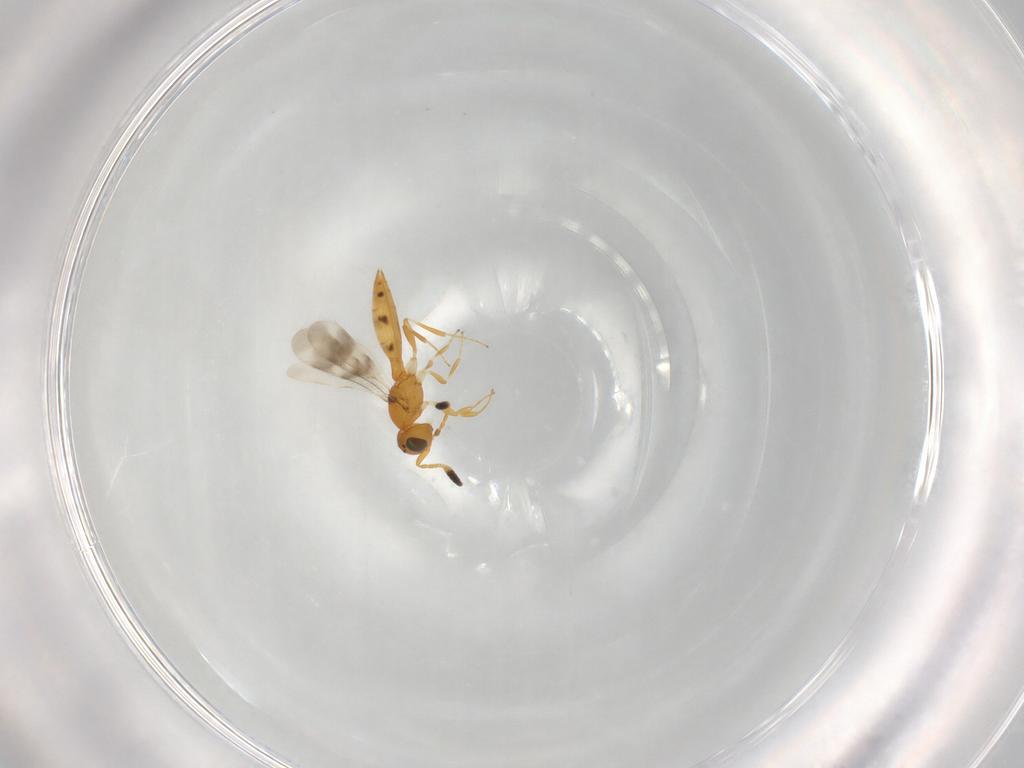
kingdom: Animalia
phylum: Arthropoda
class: Insecta
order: Hymenoptera
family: Scelionidae
